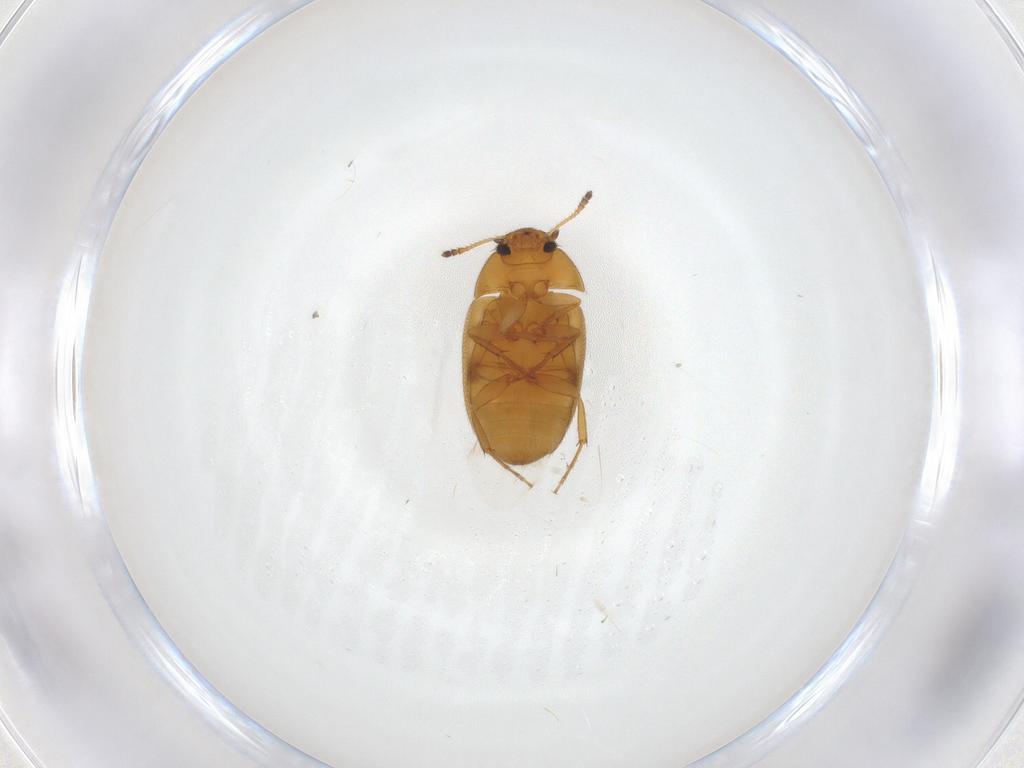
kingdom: Animalia
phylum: Arthropoda
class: Insecta
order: Coleoptera
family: Mycetophagidae
